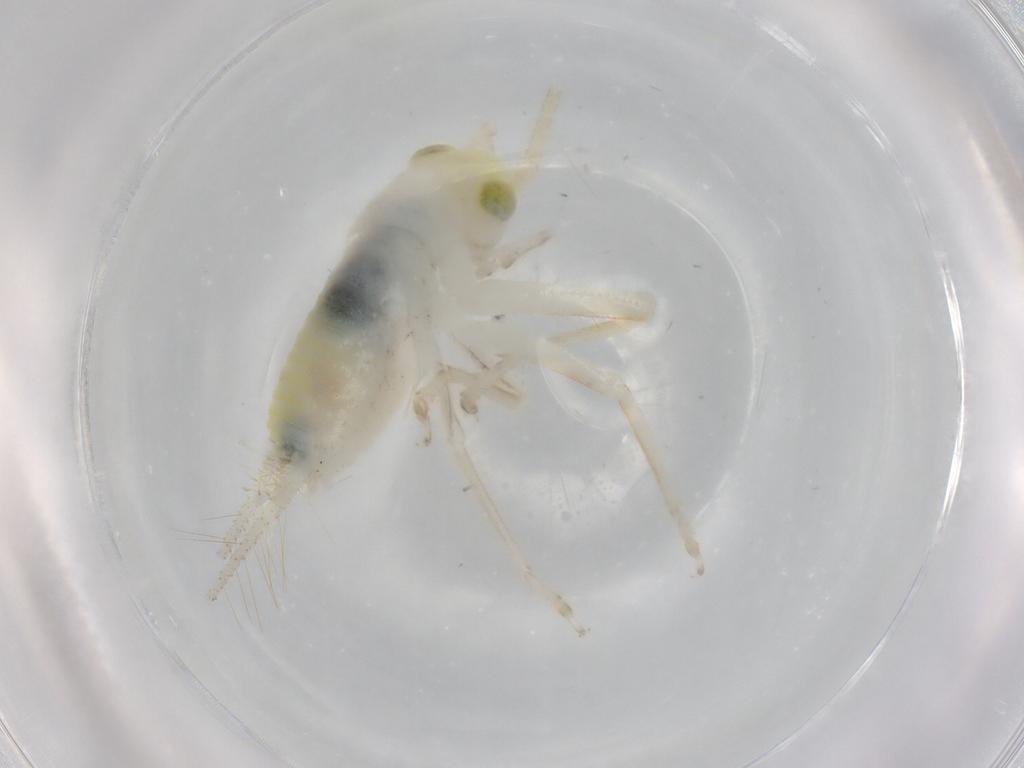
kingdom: Animalia
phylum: Arthropoda
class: Insecta
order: Orthoptera
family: Trigonidiidae
